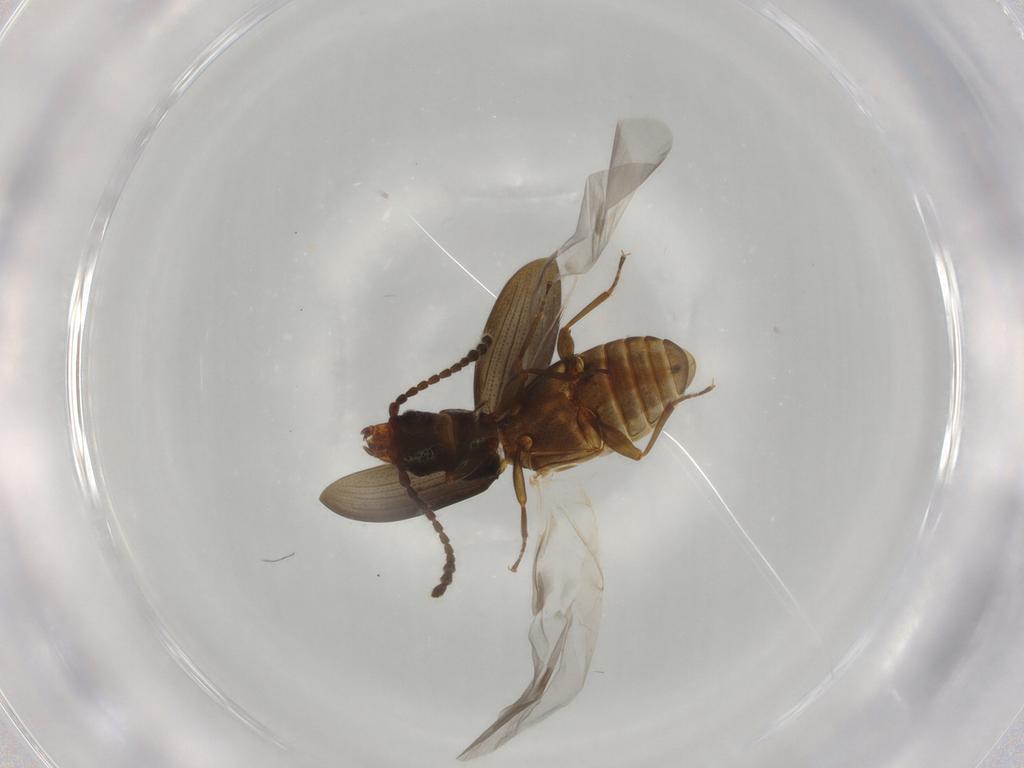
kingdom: Animalia
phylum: Arthropoda
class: Insecta
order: Coleoptera
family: Laemophloeidae
